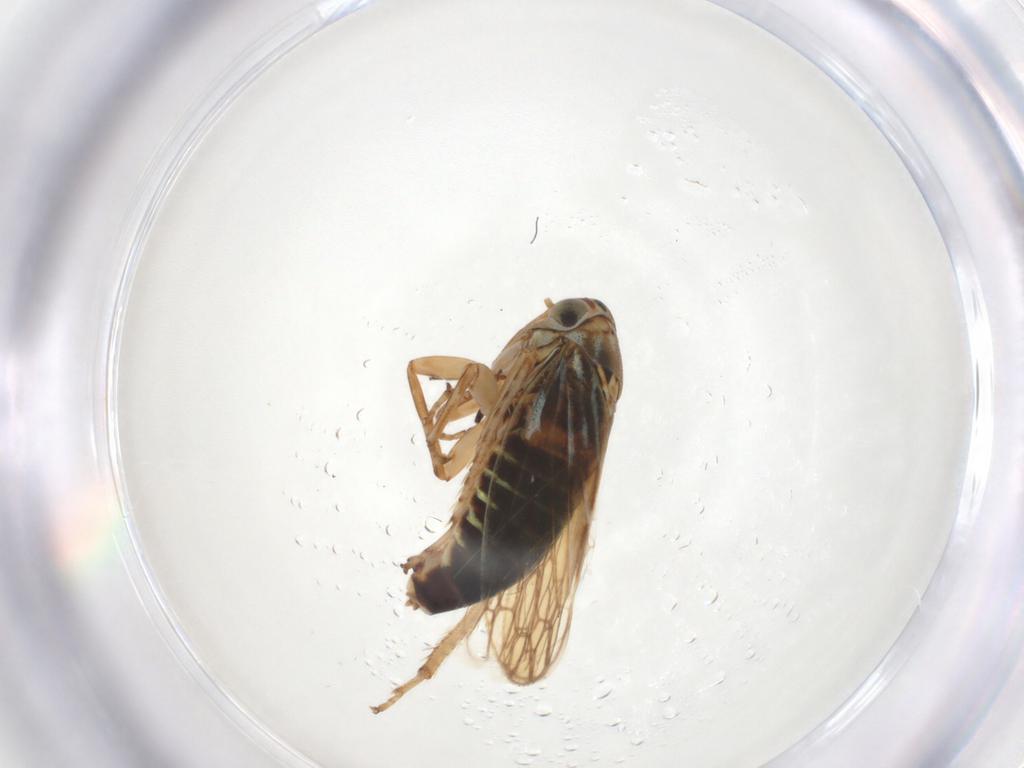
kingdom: Animalia
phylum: Arthropoda
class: Insecta
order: Hemiptera
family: Cicadellidae
